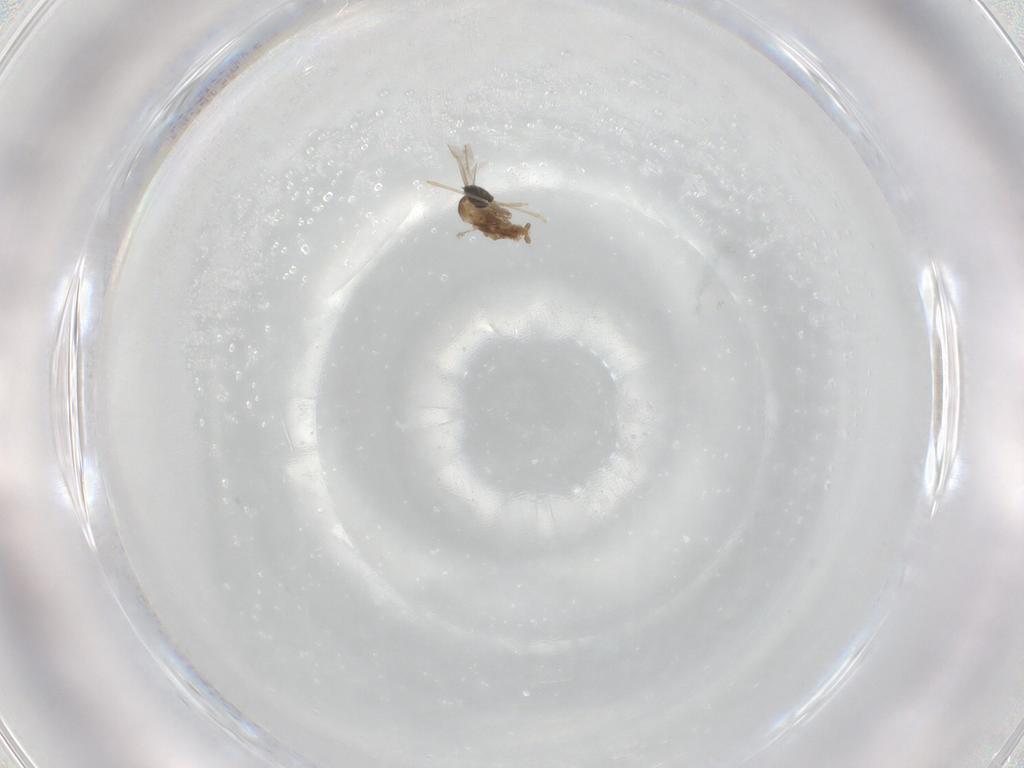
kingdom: Animalia
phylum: Arthropoda
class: Insecta
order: Diptera
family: Cecidomyiidae
